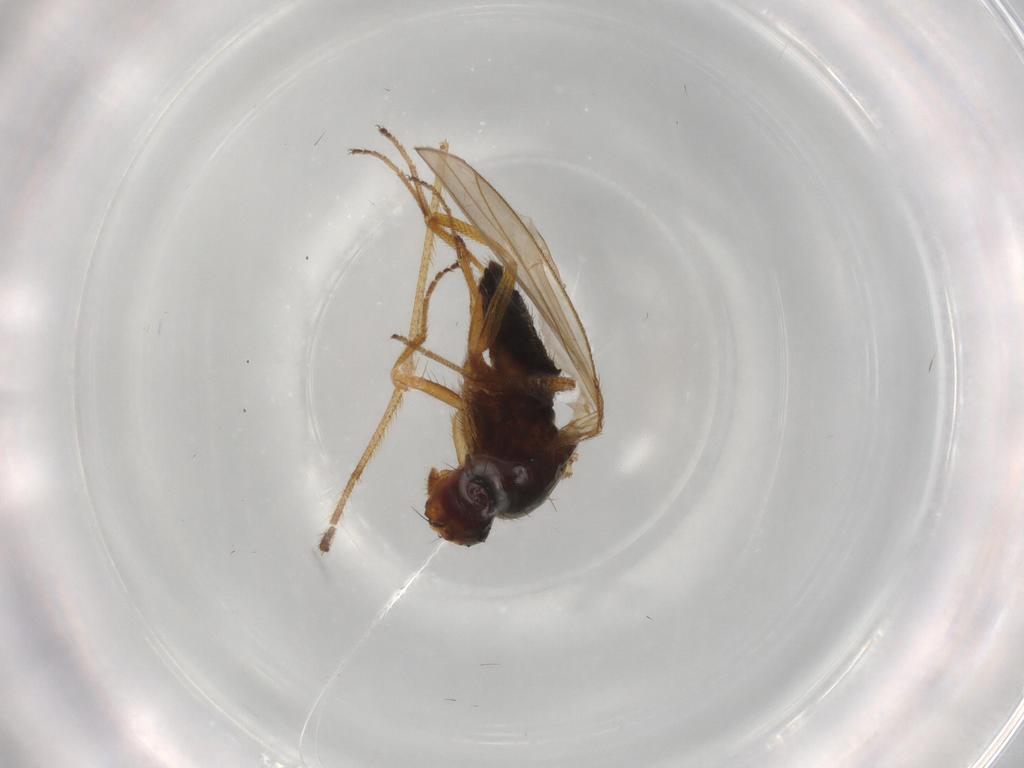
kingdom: Animalia
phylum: Arthropoda
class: Insecta
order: Diptera
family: Drosophilidae
